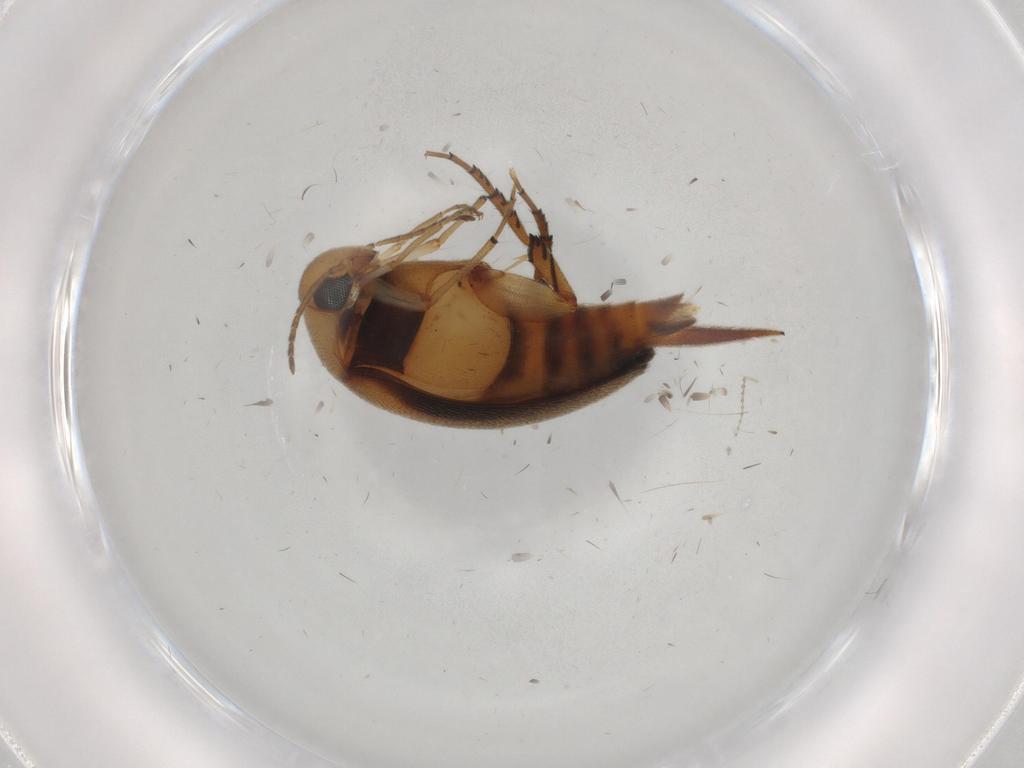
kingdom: Animalia
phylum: Arthropoda
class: Insecta
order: Coleoptera
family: Mordellidae
